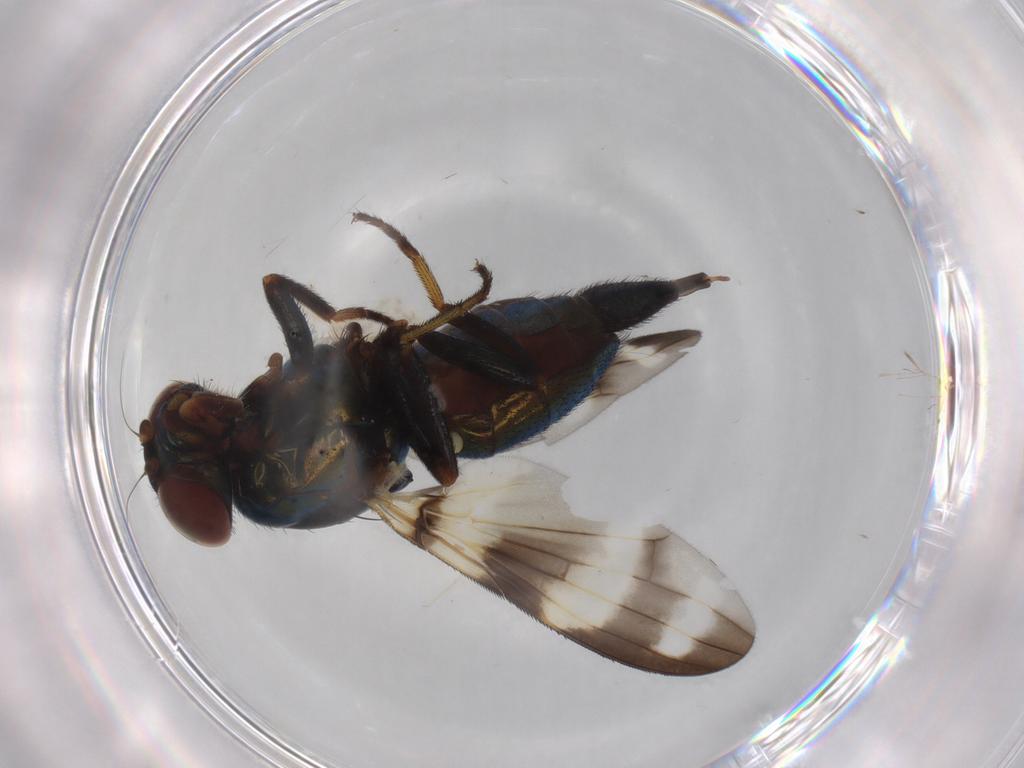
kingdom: Animalia
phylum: Arthropoda
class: Insecta
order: Diptera
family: Ulidiidae
